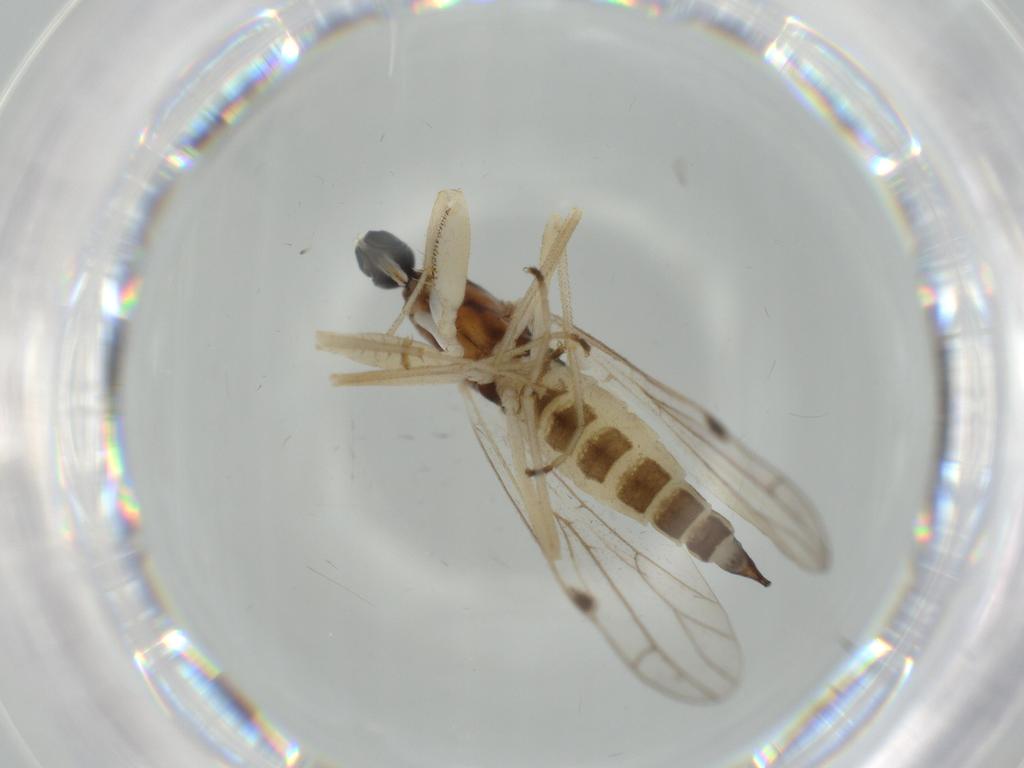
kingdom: Animalia
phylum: Arthropoda
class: Insecta
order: Diptera
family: Empididae
